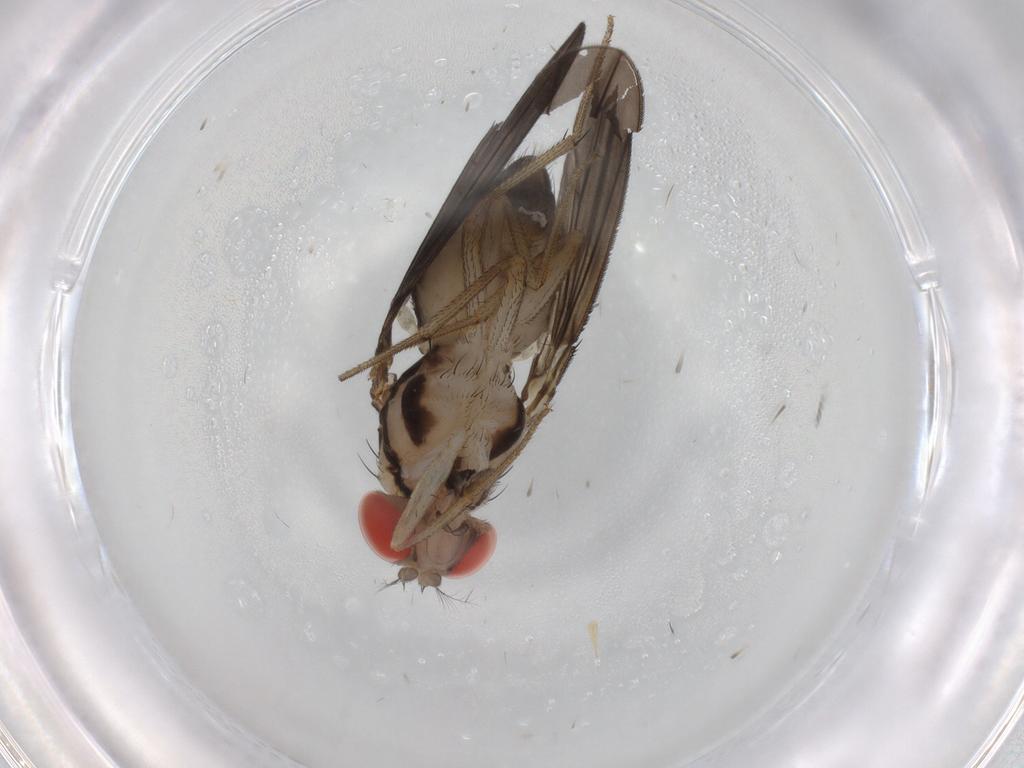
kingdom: Animalia
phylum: Arthropoda
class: Insecta
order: Diptera
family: Drosophilidae
